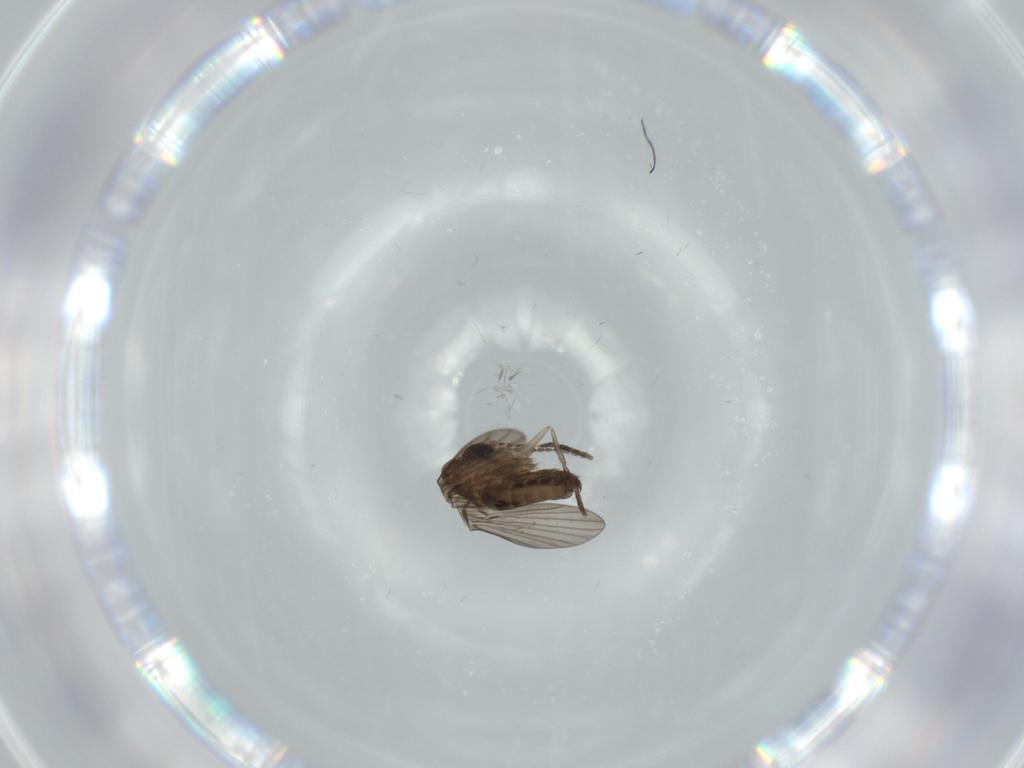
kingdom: Animalia
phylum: Arthropoda
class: Insecta
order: Diptera
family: Psychodidae
